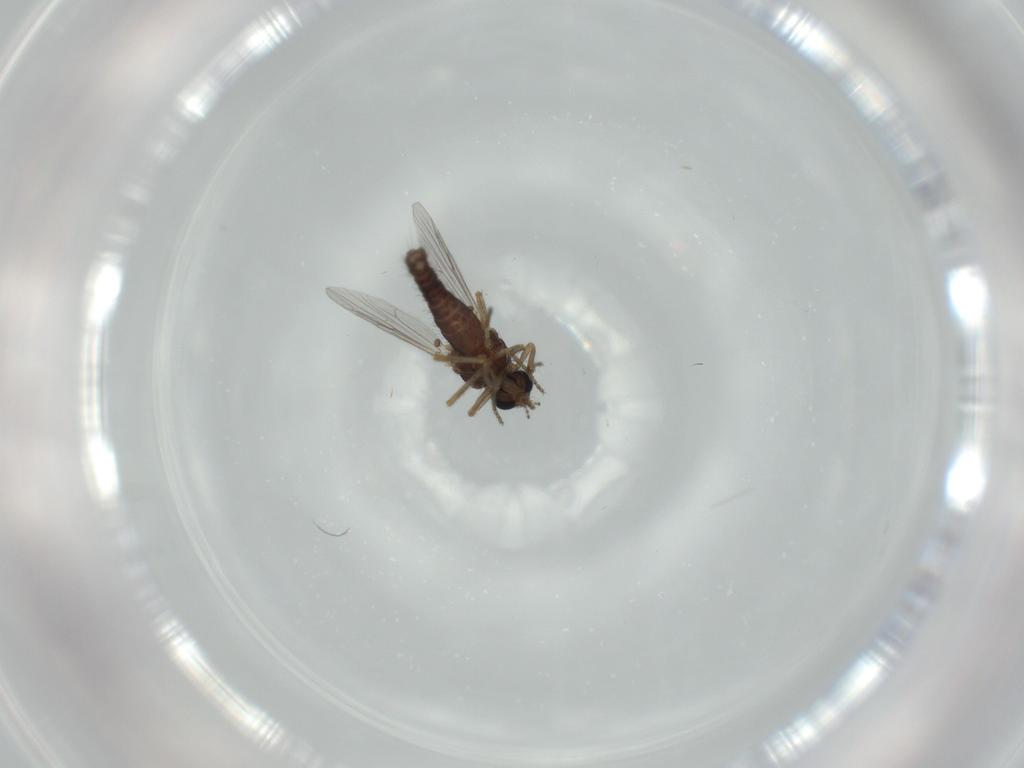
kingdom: Animalia
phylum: Arthropoda
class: Insecta
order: Diptera
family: Ceratopogonidae
